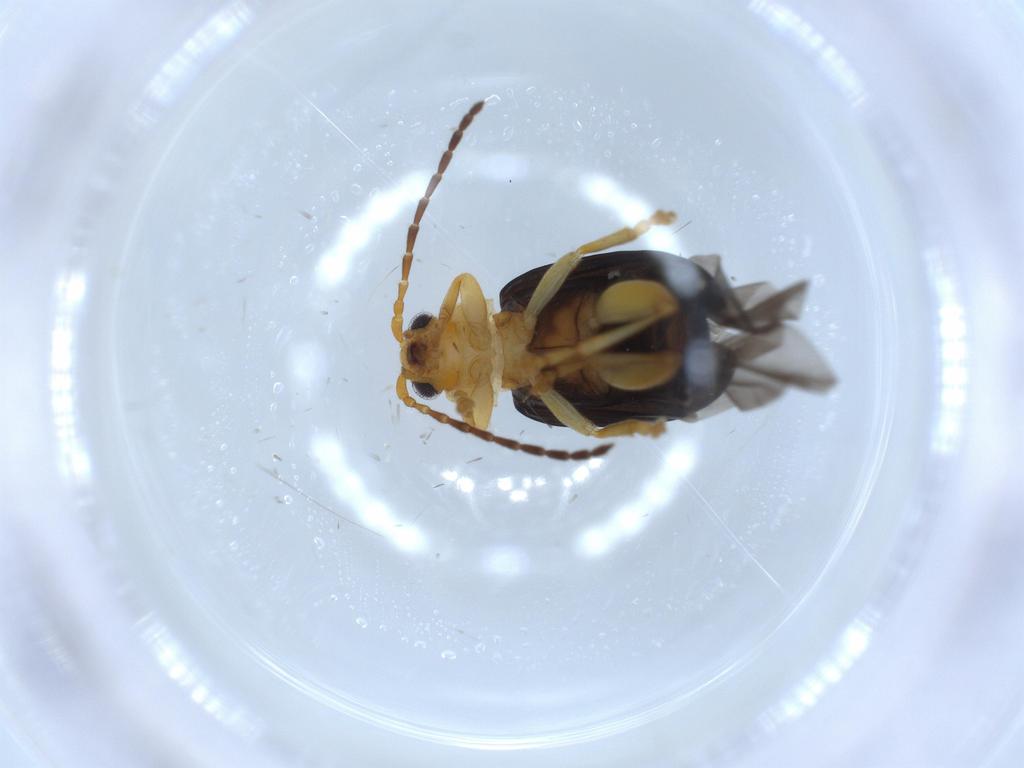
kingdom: Animalia
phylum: Arthropoda
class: Insecta
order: Coleoptera
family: Chrysomelidae
